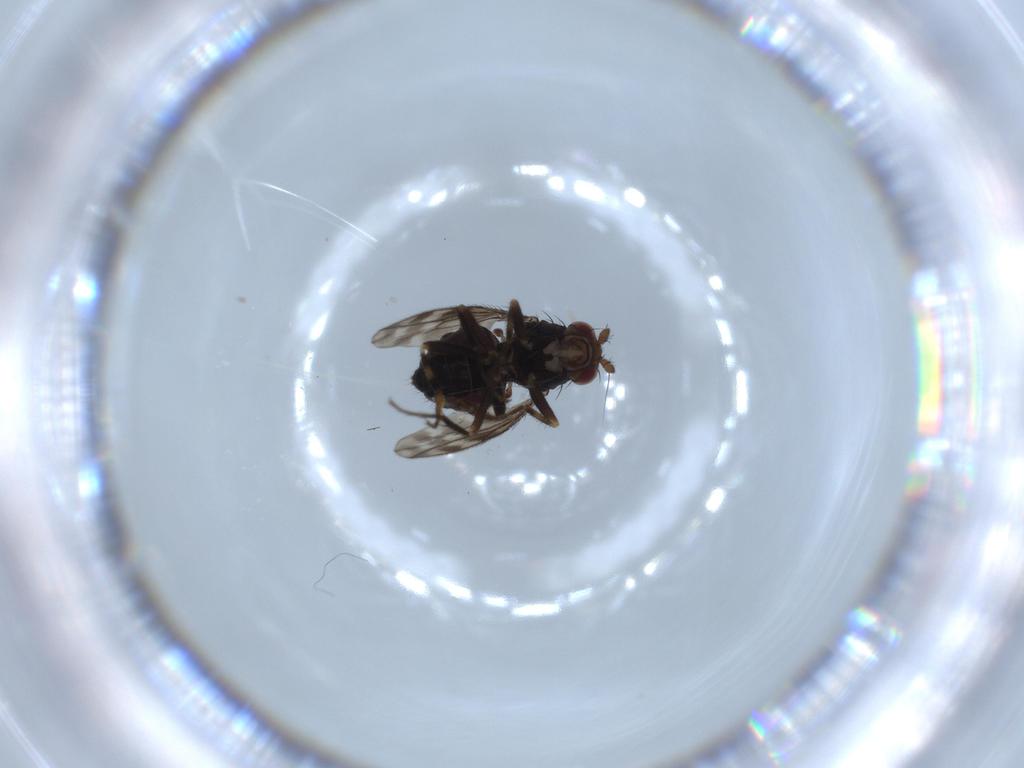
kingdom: Animalia
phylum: Arthropoda
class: Insecta
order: Diptera
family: Sphaeroceridae
